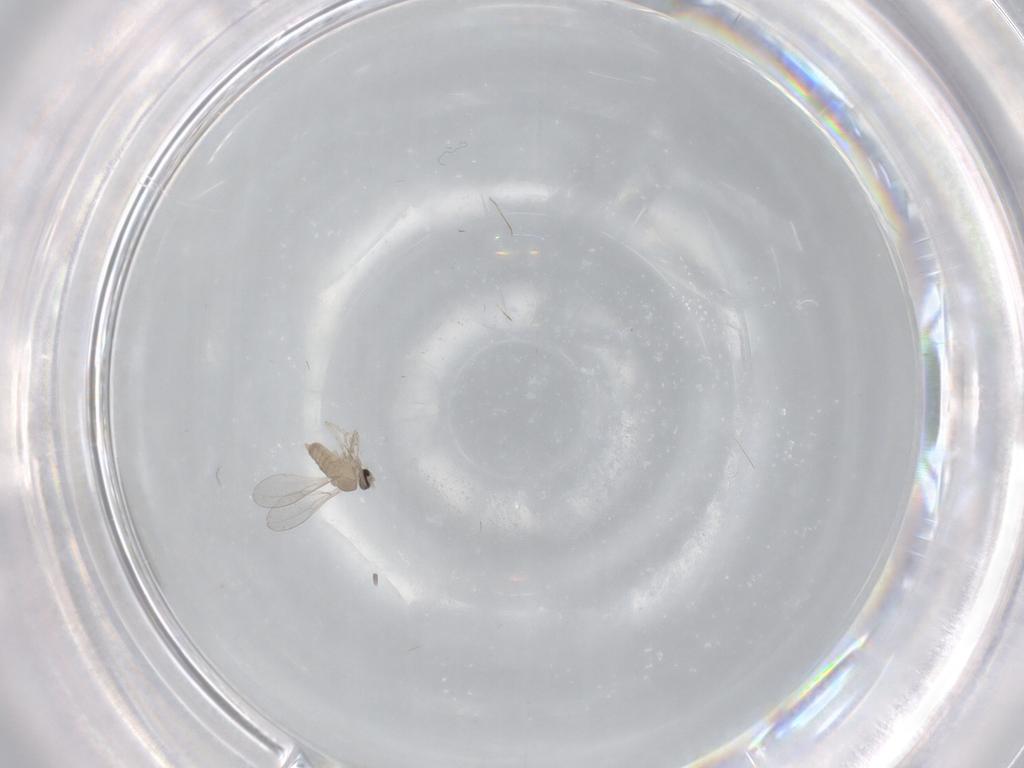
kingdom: Animalia
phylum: Arthropoda
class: Insecta
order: Diptera
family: Cecidomyiidae
